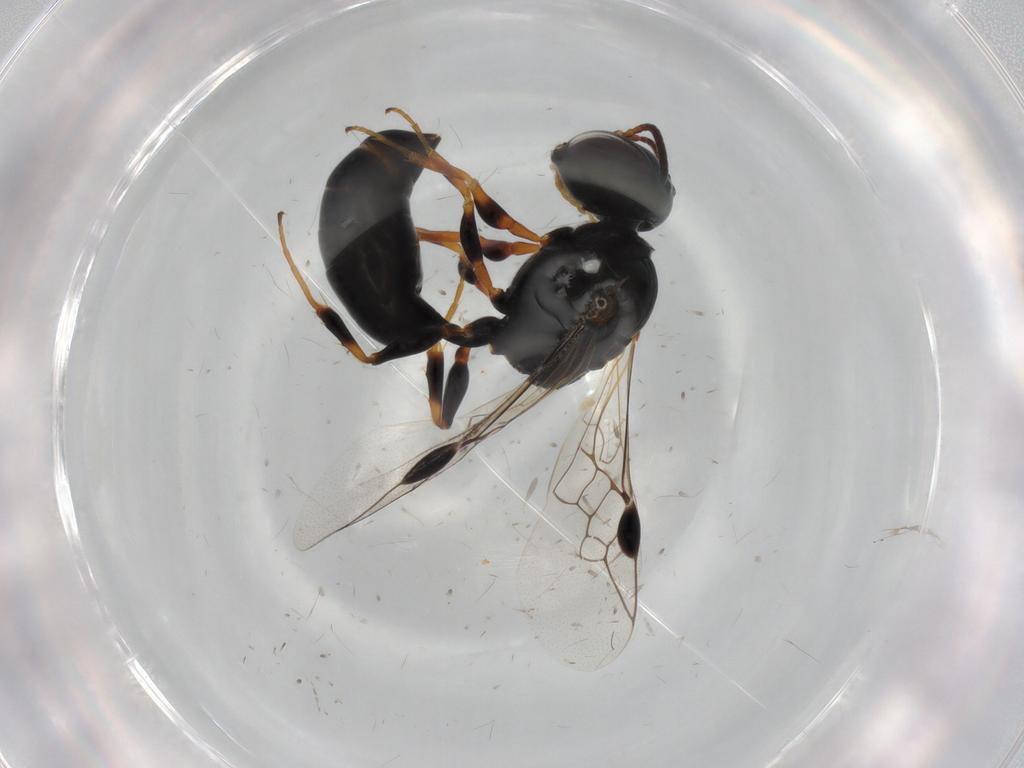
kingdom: Animalia
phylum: Arthropoda
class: Insecta
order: Hymenoptera
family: Pemphredonidae
